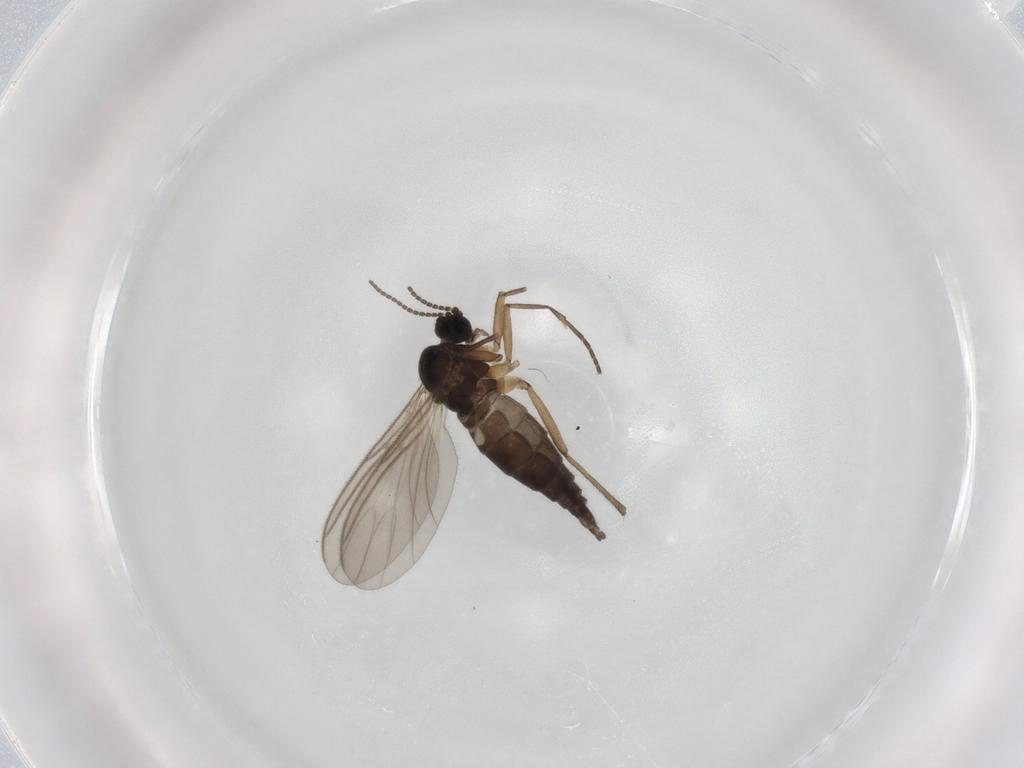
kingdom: Animalia
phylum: Arthropoda
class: Insecta
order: Diptera
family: Sciaridae
